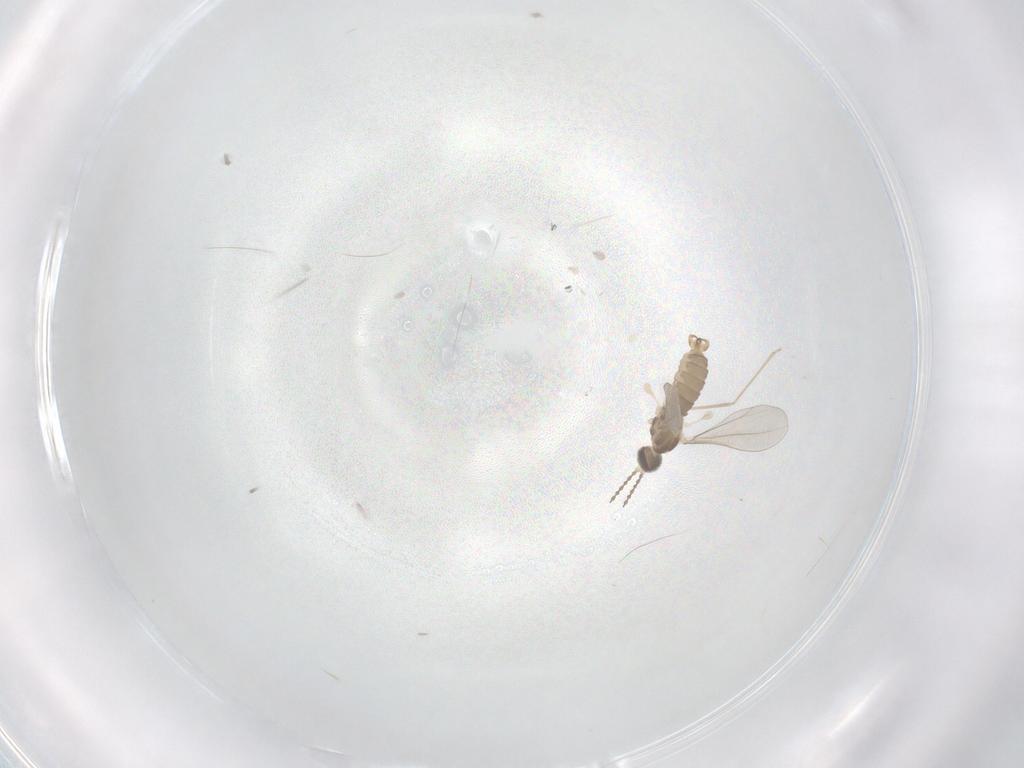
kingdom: Animalia
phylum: Arthropoda
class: Insecta
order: Diptera
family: Cecidomyiidae
